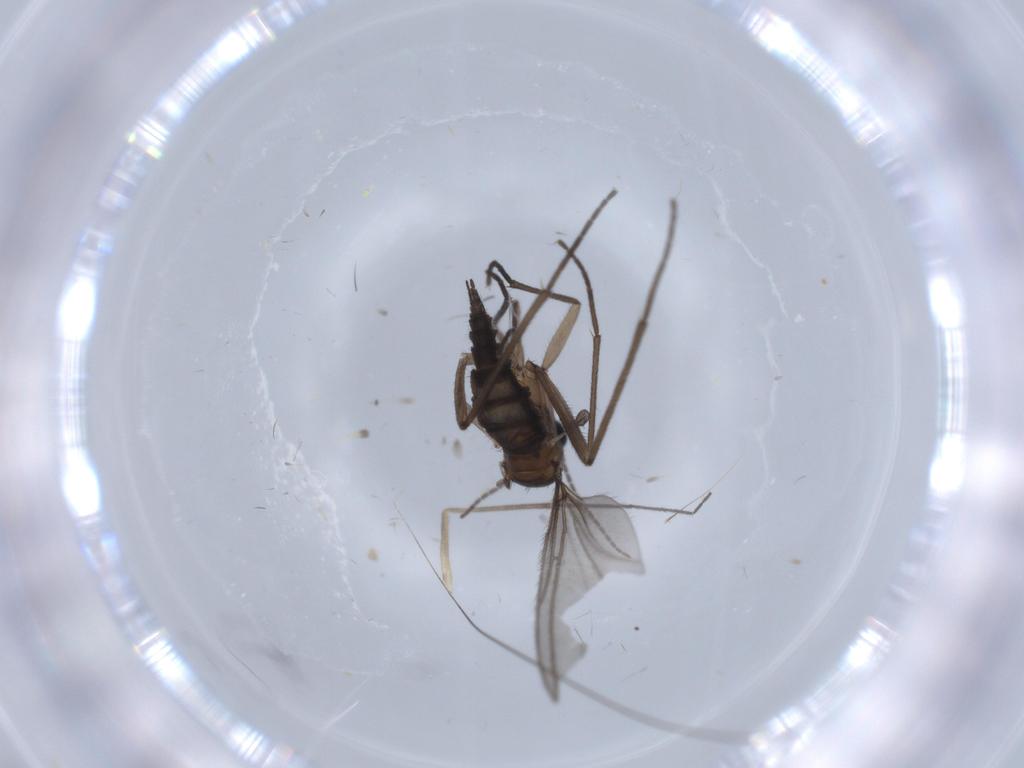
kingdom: Animalia
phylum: Arthropoda
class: Insecta
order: Diptera
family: Keroplatidae
